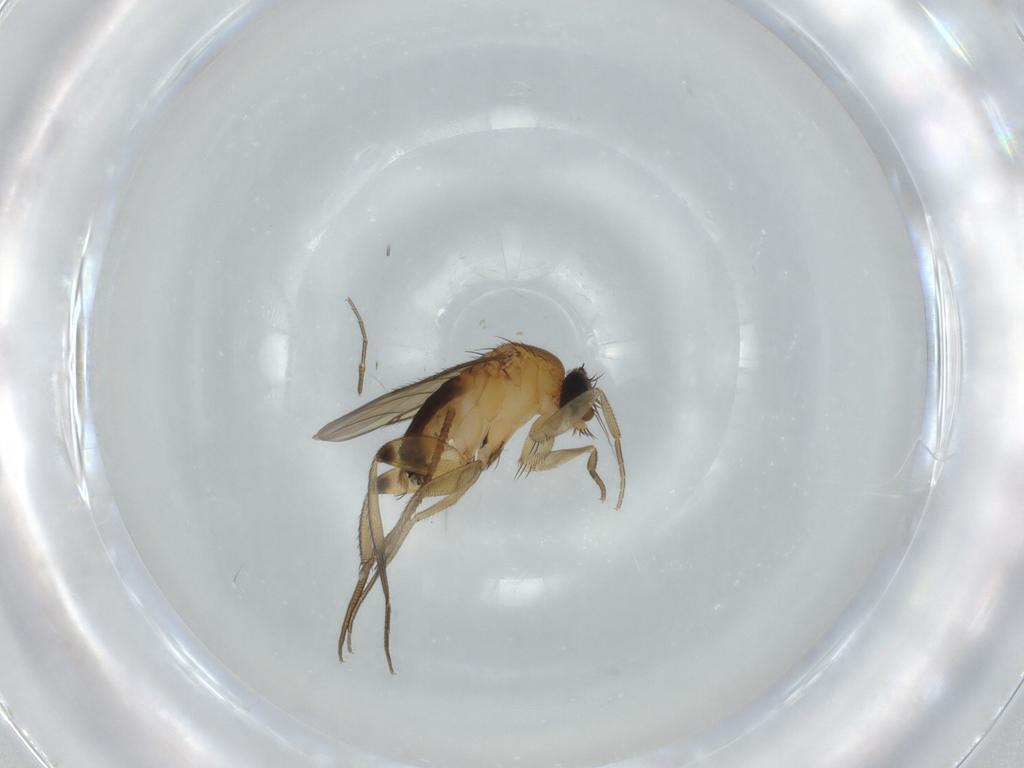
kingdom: Animalia
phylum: Arthropoda
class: Insecta
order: Diptera
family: Phoridae
